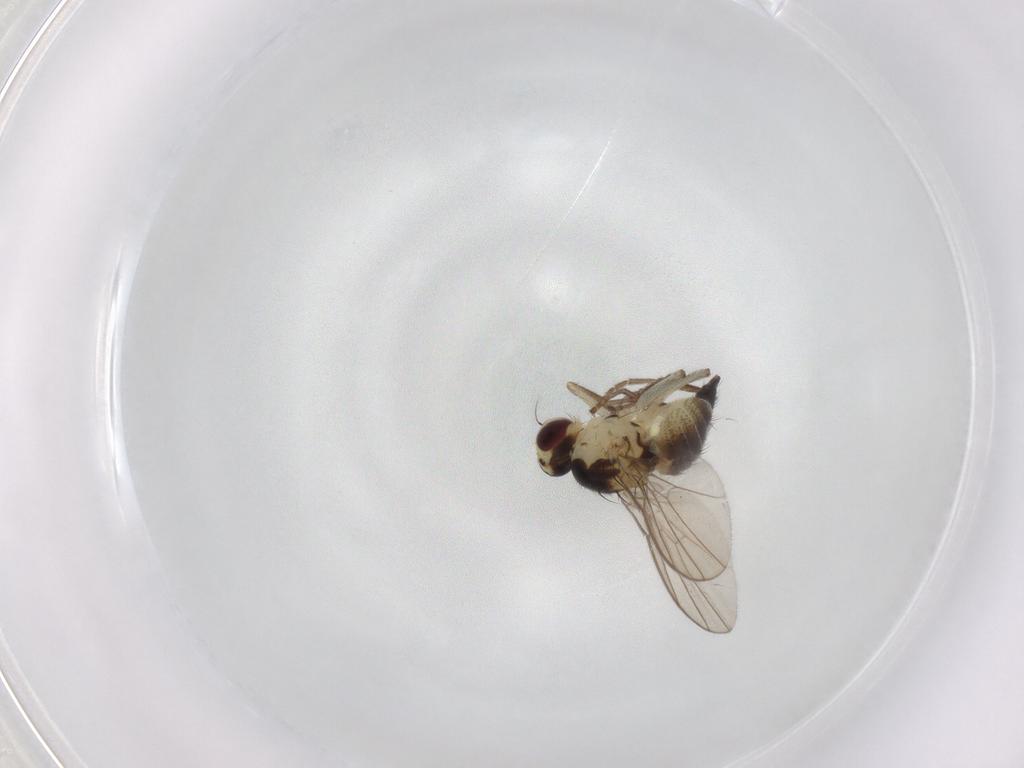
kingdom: Animalia
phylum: Arthropoda
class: Insecta
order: Diptera
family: Agromyzidae
